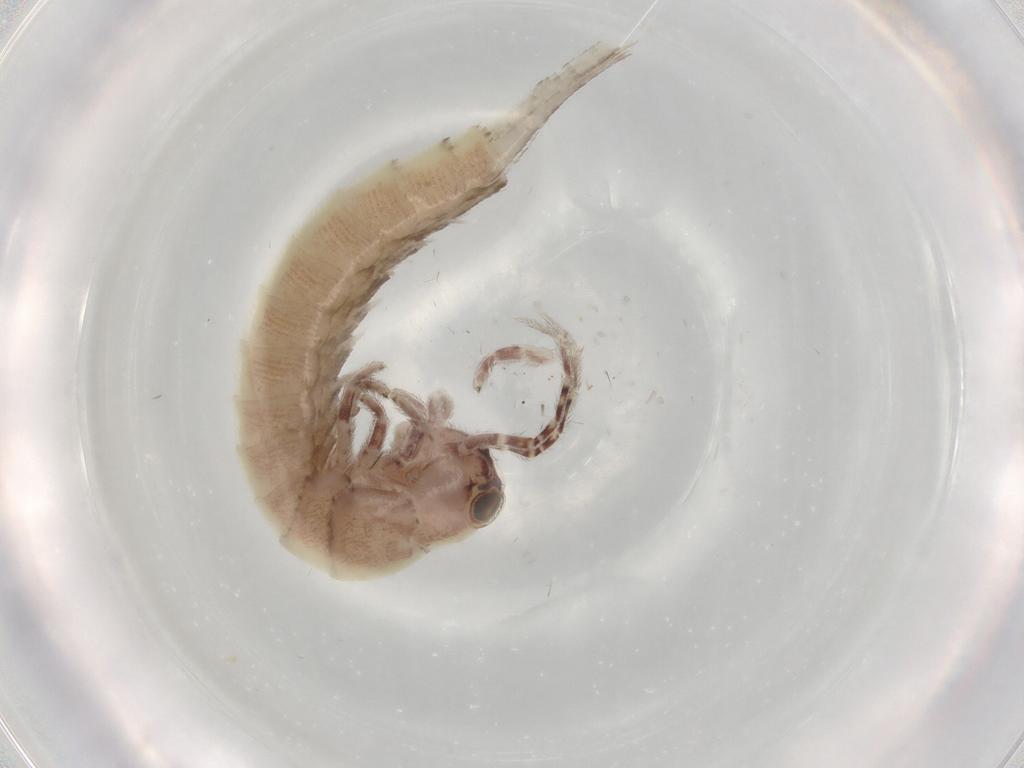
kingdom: Animalia
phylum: Arthropoda
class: Insecta
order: Archaeognatha
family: Machilidae
